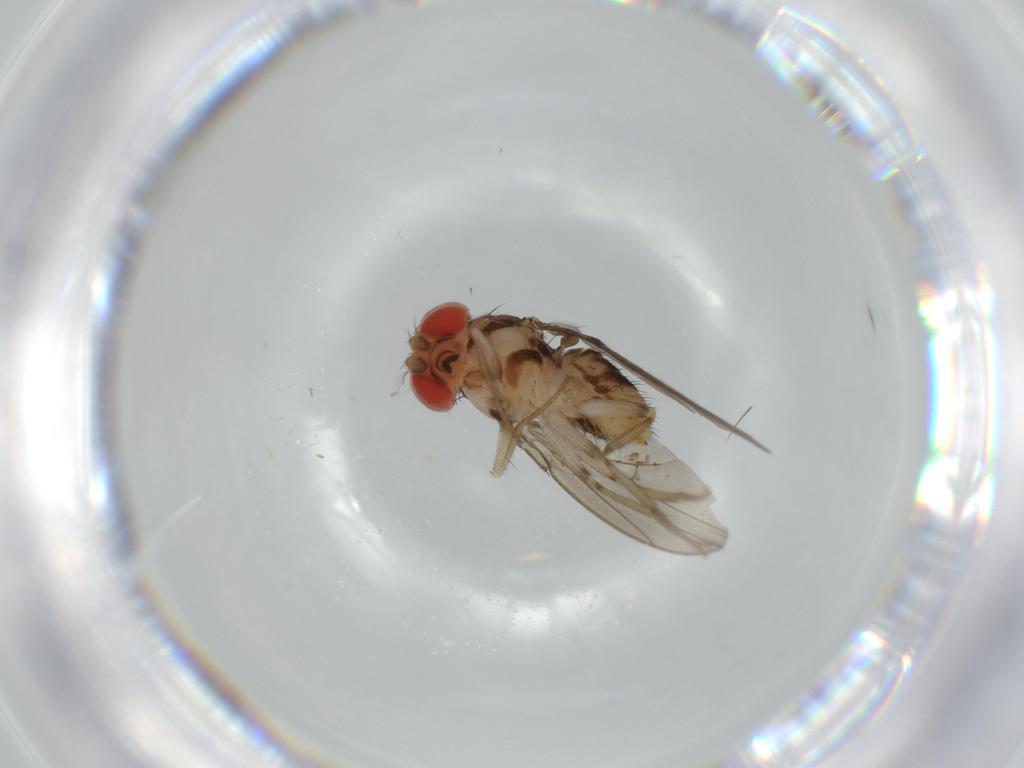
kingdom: Animalia
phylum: Arthropoda
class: Insecta
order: Diptera
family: Drosophilidae
